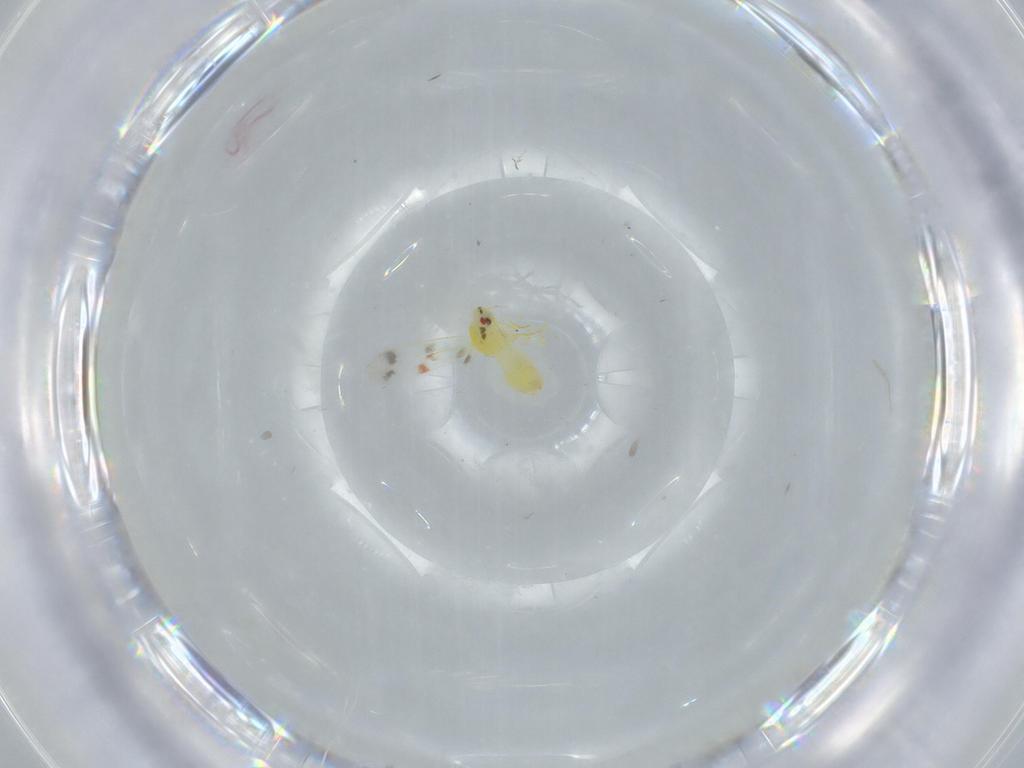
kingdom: Animalia
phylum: Arthropoda
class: Insecta
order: Hemiptera
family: Aleyrodidae
